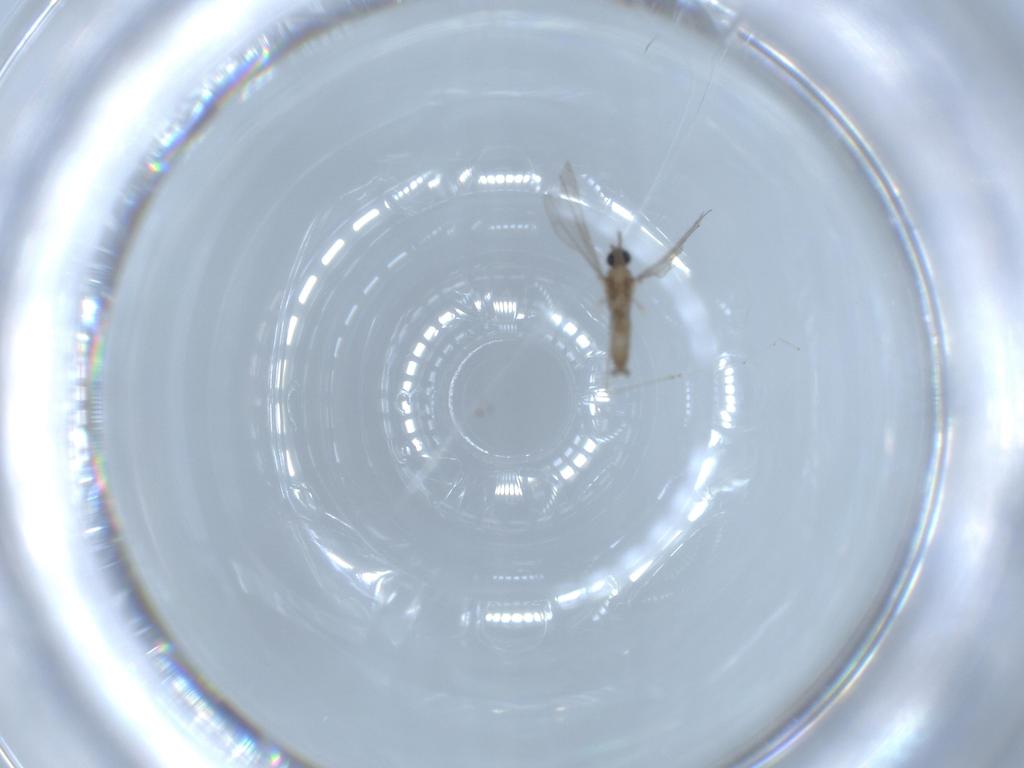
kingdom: Animalia
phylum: Arthropoda
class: Insecta
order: Diptera
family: Cecidomyiidae
